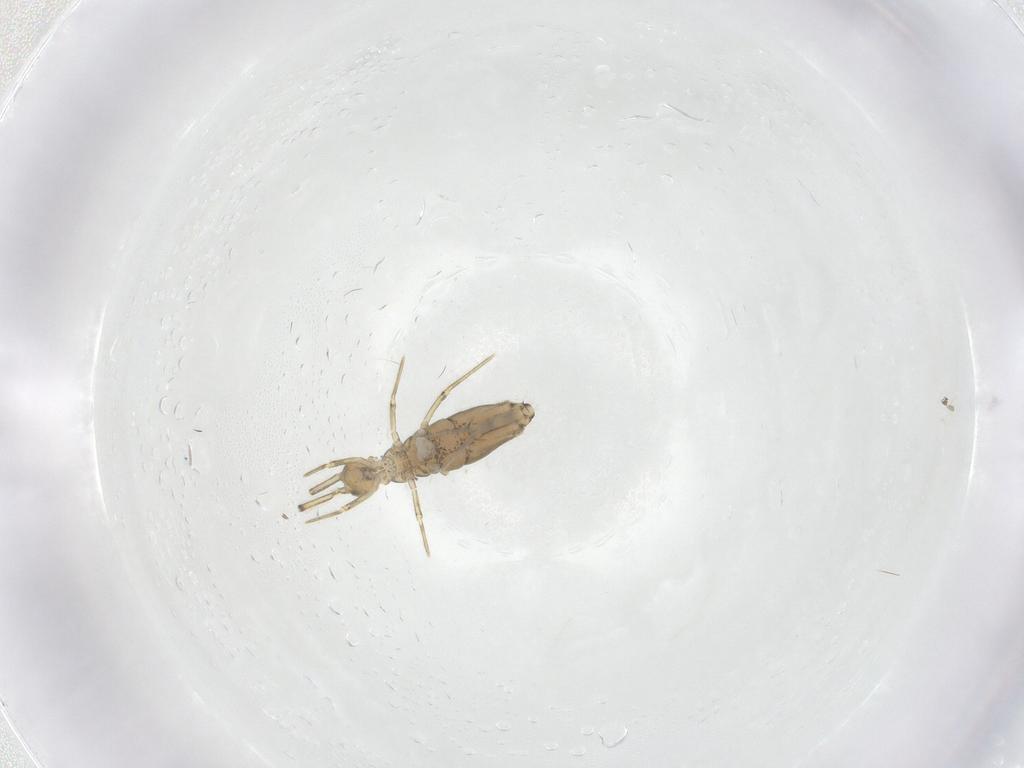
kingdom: Animalia
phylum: Arthropoda
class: Collembola
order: Entomobryomorpha
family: Paronellidae
